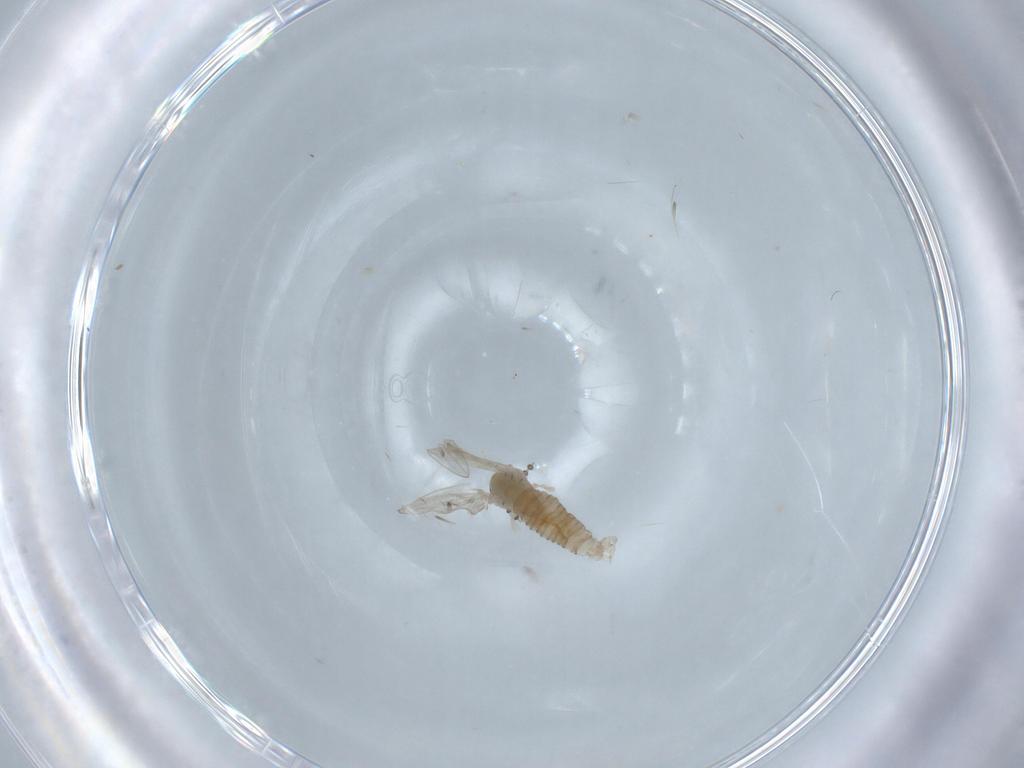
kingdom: Animalia
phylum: Arthropoda
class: Insecta
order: Diptera
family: Psychodidae
